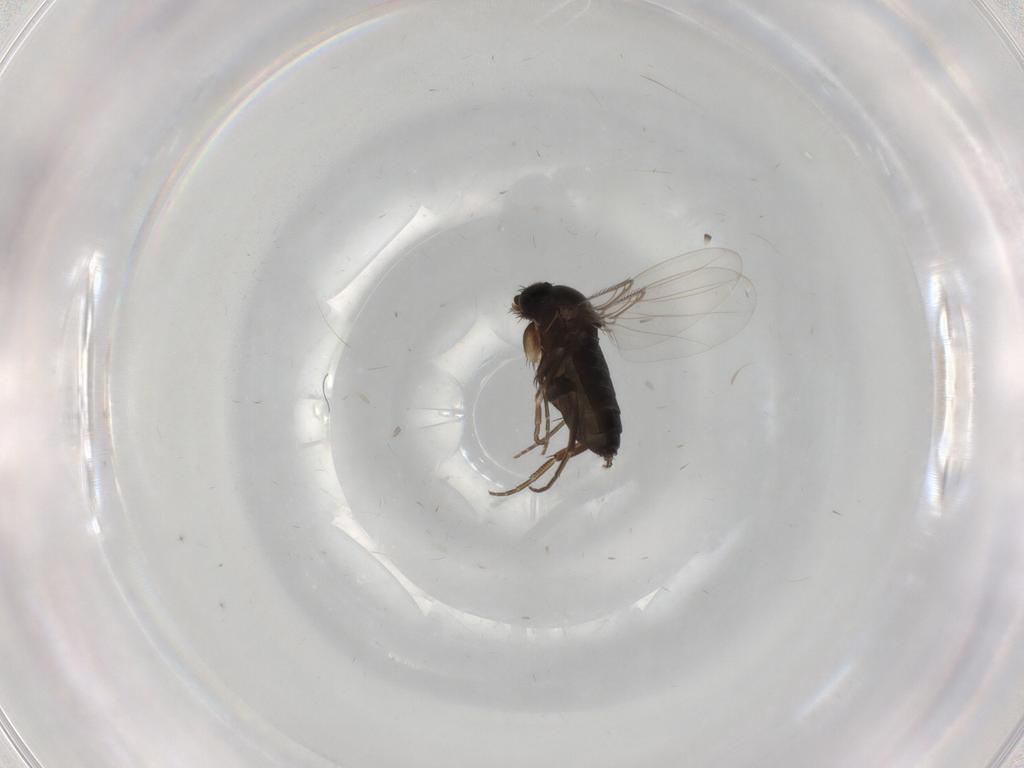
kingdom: Animalia
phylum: Arthropoda
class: Insecta
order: Diptera
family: Phoridae
